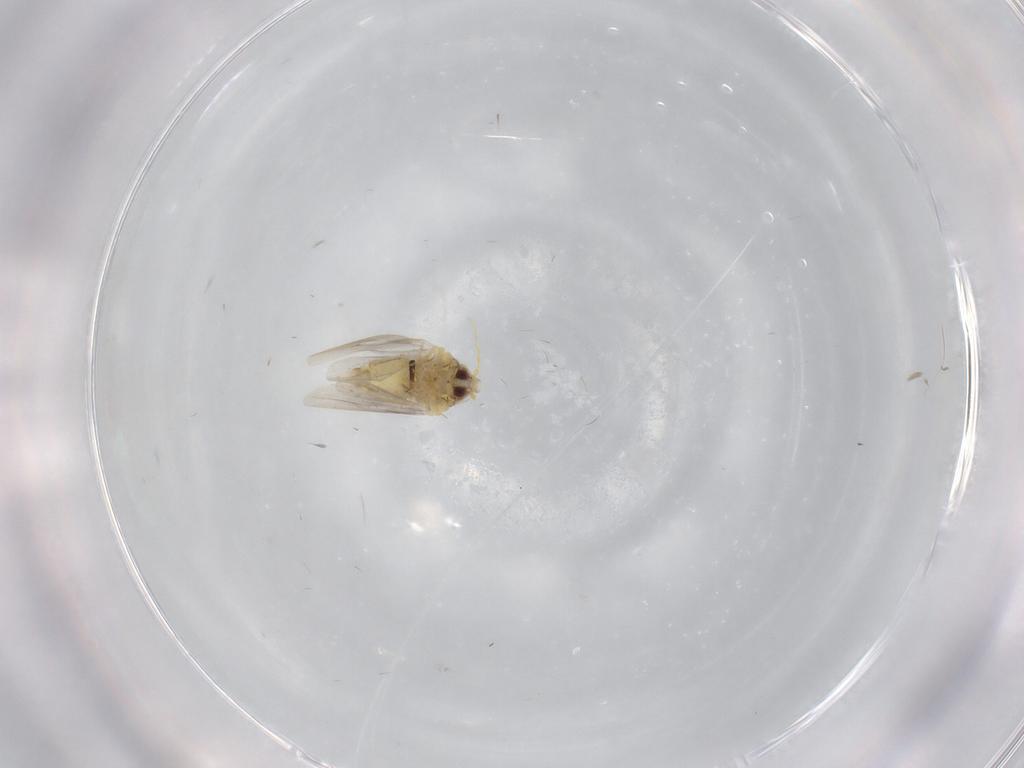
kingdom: Animalia
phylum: Arthropoda
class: Insecta
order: Hemiptera
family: Aleyrodidae
